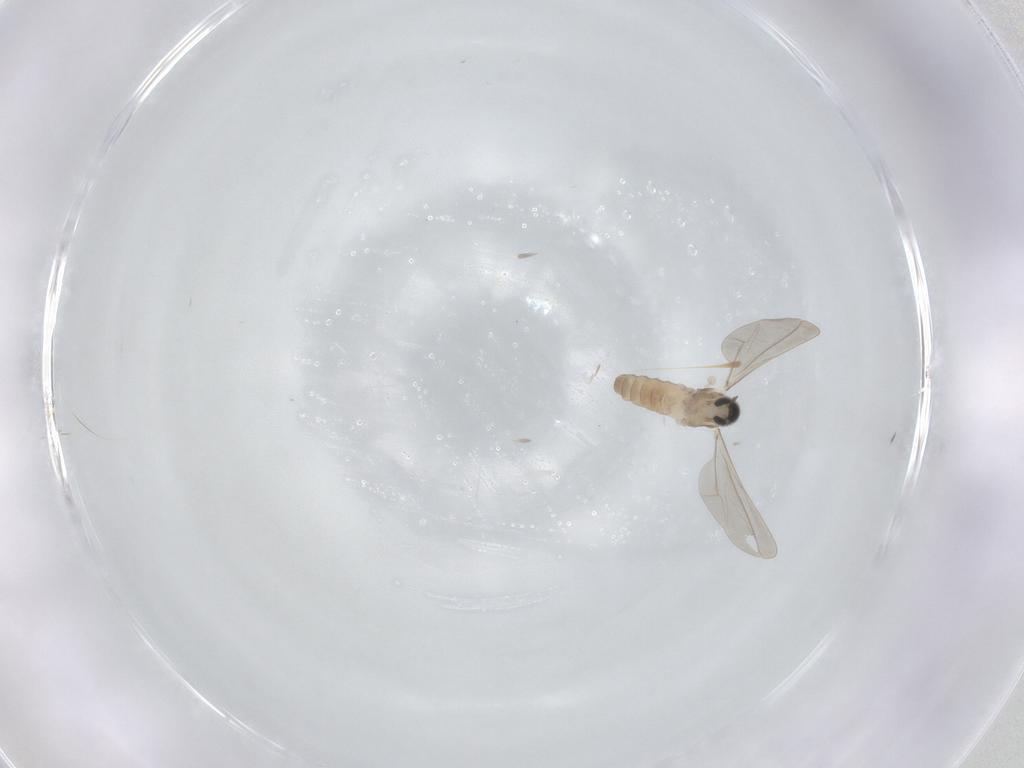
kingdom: Animalia
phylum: Arthropoda
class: Insecta
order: Diptera
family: Cecidomyiidae
